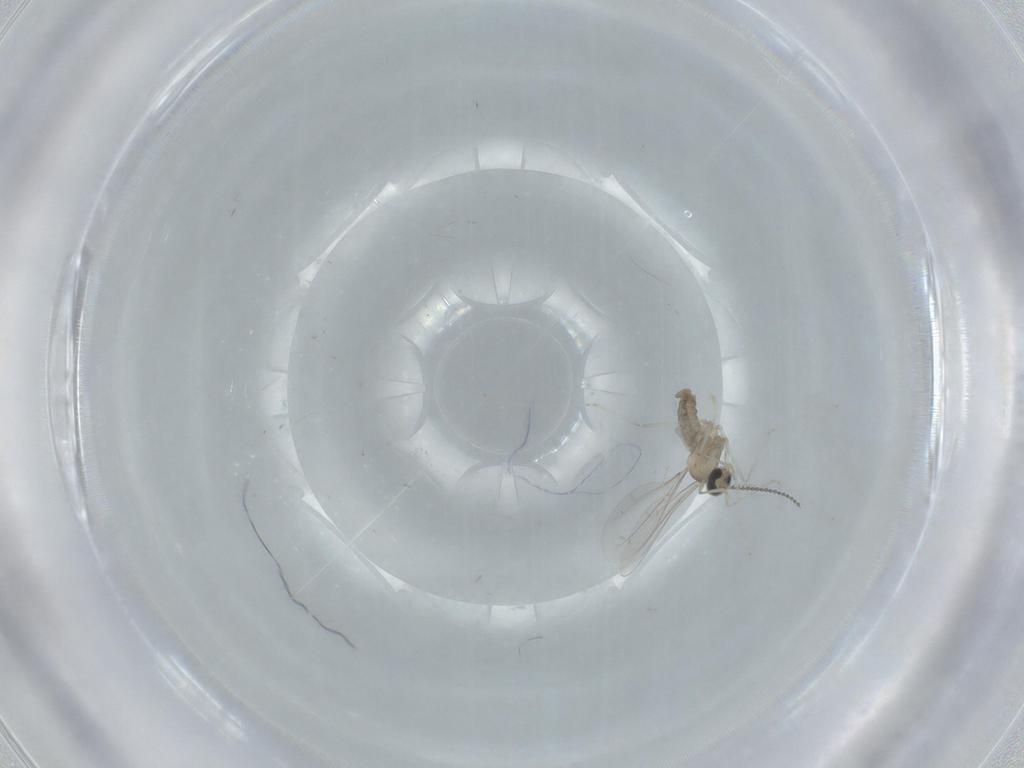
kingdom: Animalia
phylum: Arthropoda
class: Insecta
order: Diptera
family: Cecidomyiidae
